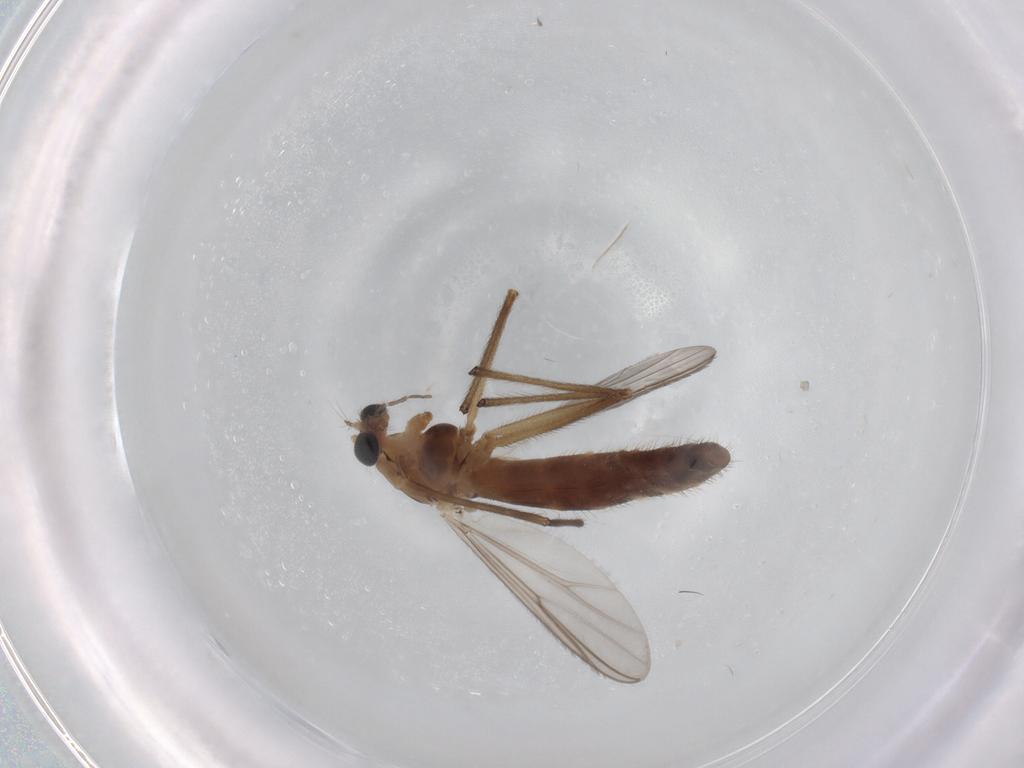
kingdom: Animalia
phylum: Arthropoda
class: Insecta
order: Diptera
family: Chironomidae
